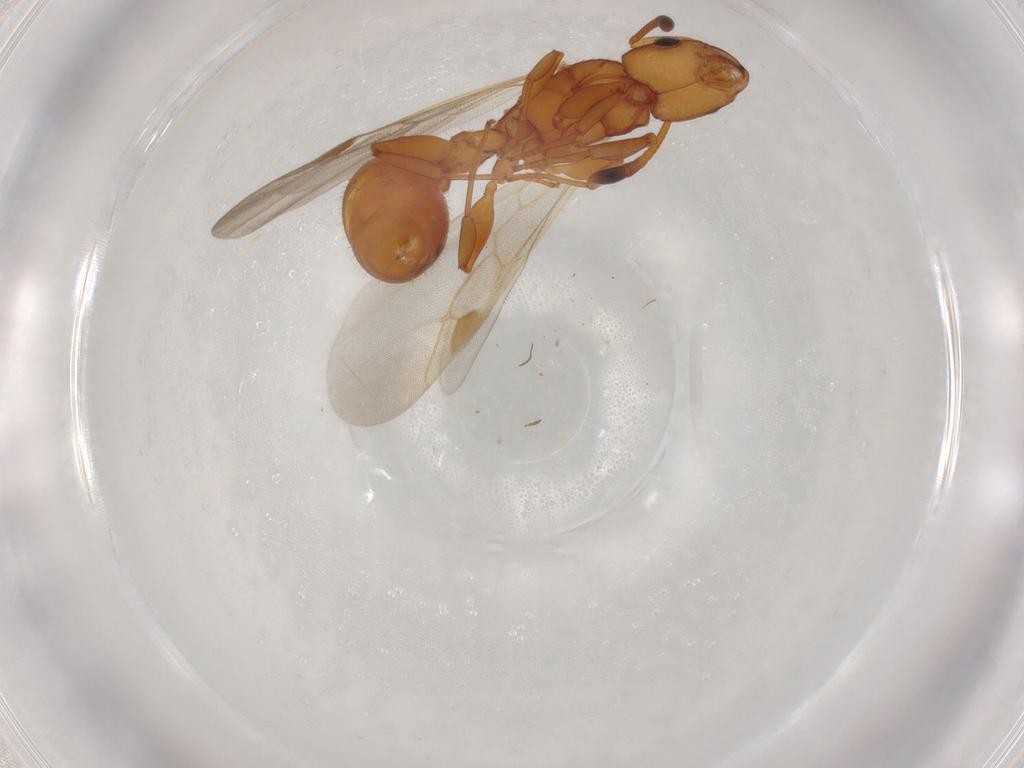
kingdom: Animalia
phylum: Arthropoda
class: Insecta
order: Hymenoptera
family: Formicidae
